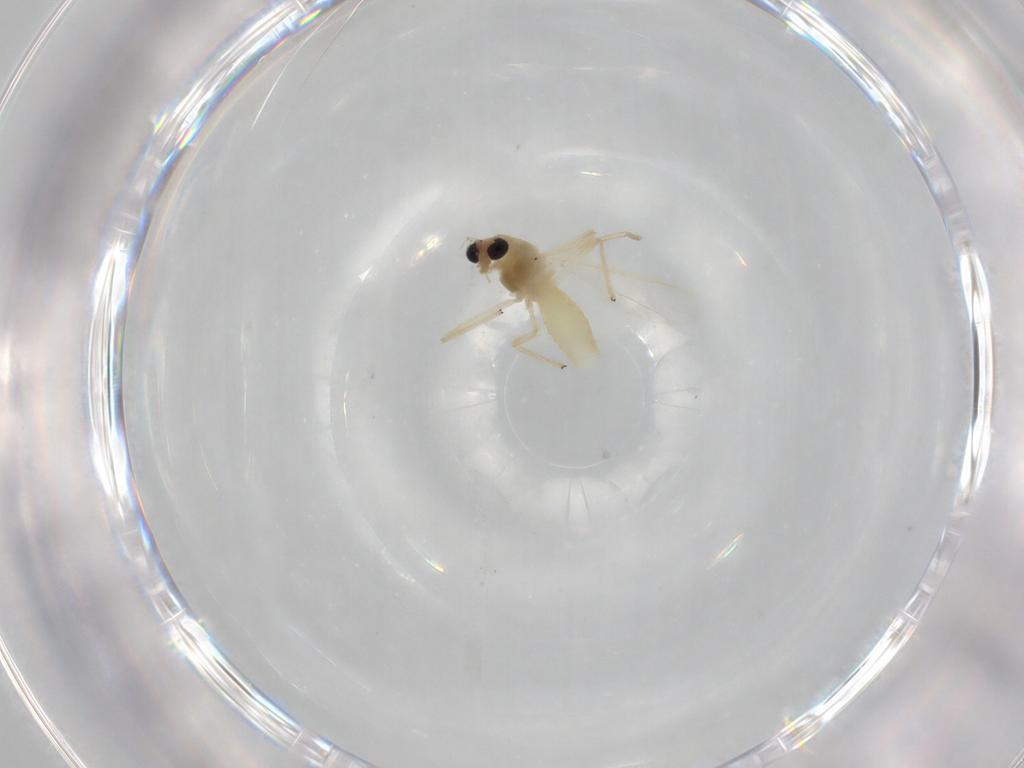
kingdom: Animalia
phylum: Arthropoda
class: Insecta
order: Diptera
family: Chironomidae
